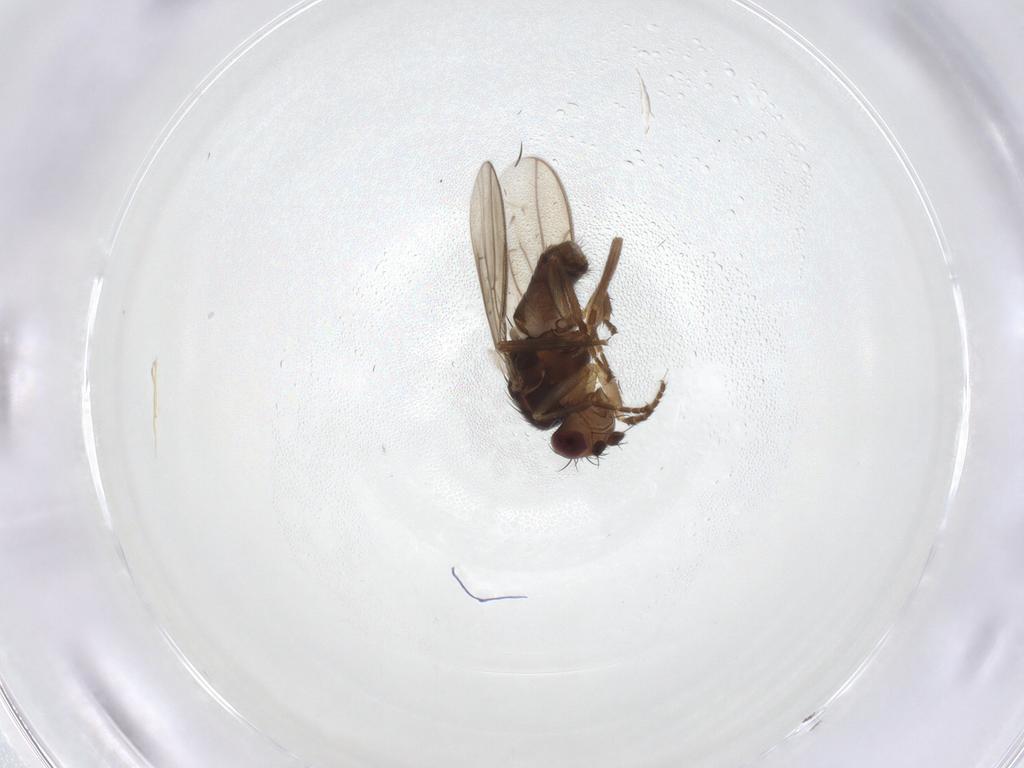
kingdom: Animalia
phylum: Arthropoda
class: Insecta
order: Diptera
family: Sphaeroceridae
